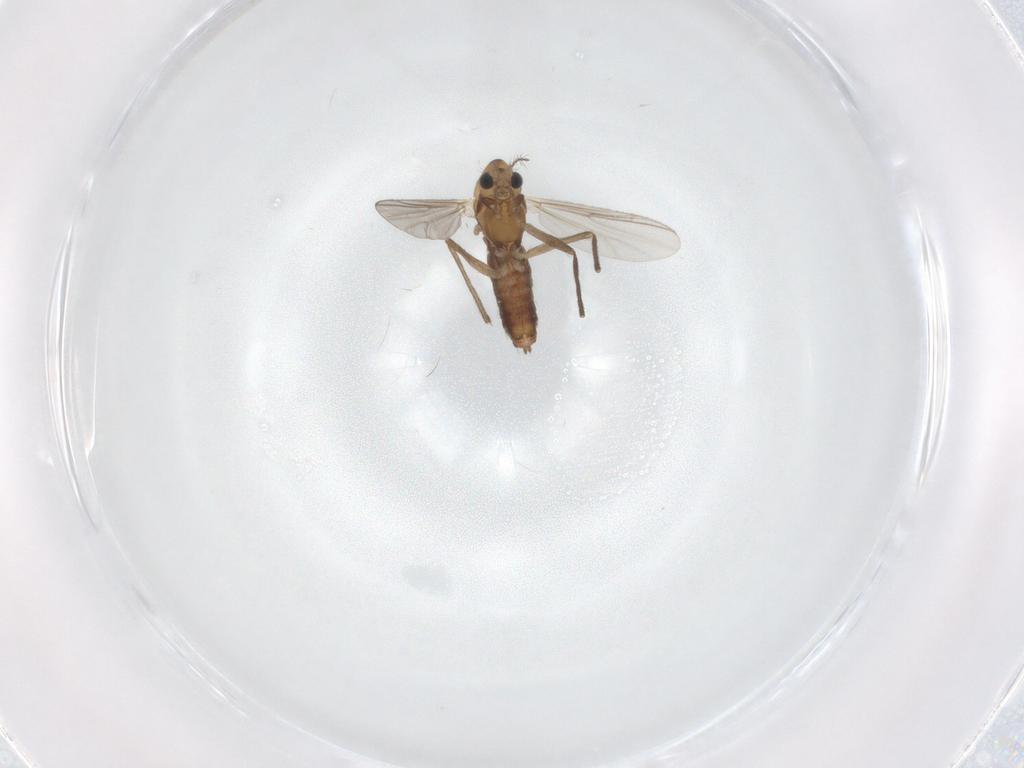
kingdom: Animalia
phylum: Arthropoda
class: Insecta
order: Diptera
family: Chironomidae
